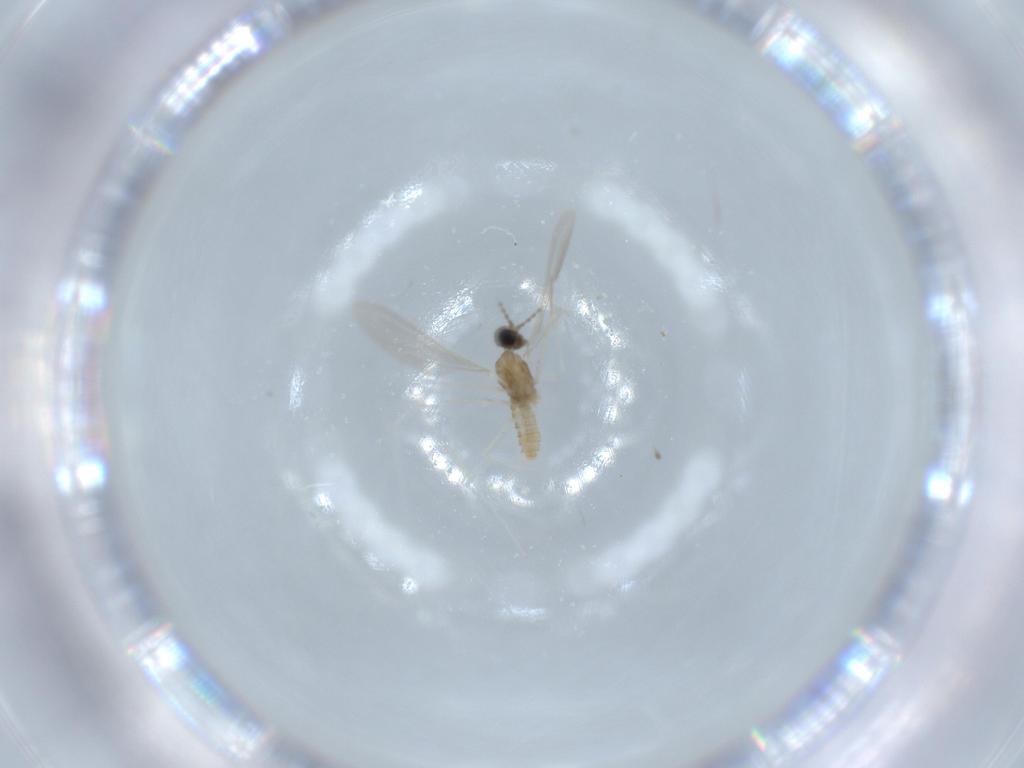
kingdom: Animalia
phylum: Arthropoda
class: Insecta
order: Diptera
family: Cecidomyiidae
